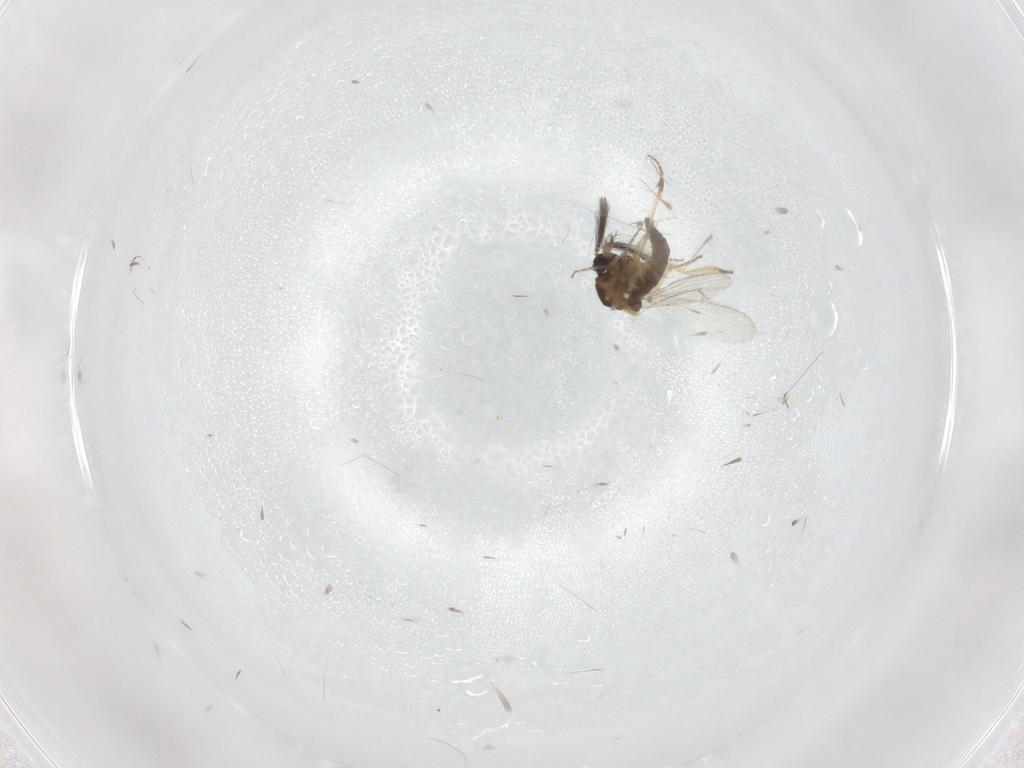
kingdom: Animalia
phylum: Arthropoda
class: Insecta
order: Diptera
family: Ceratopogonidae
